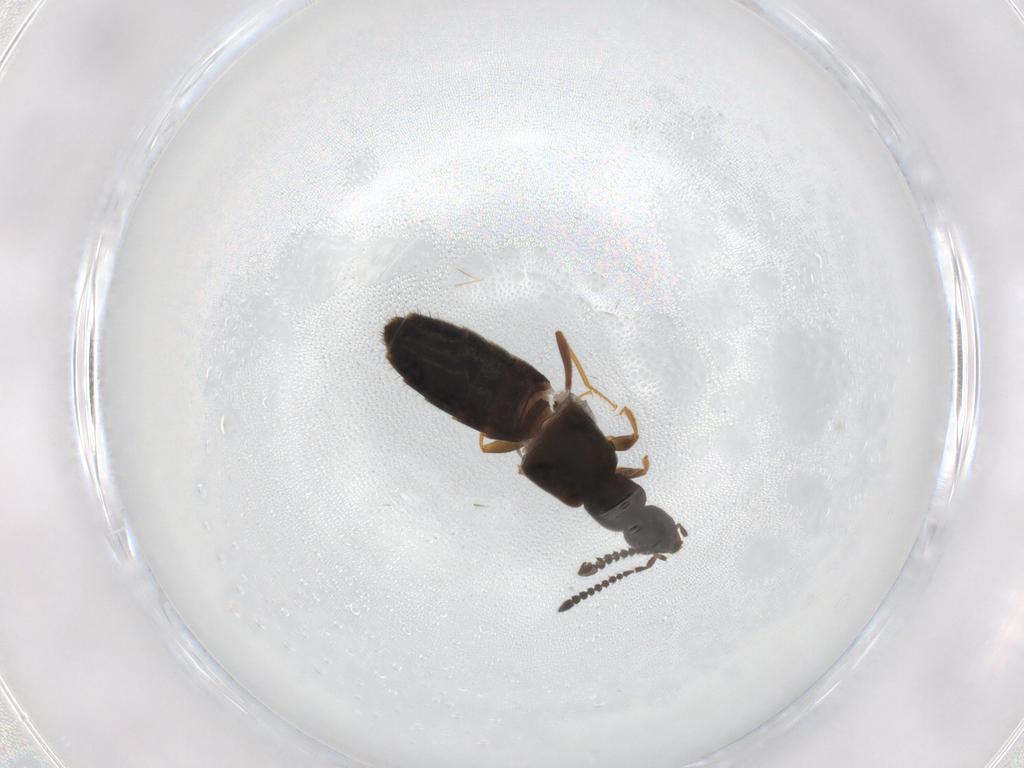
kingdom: Animalia
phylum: Arthropoda
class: Insecta
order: Coleoptera
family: Staphylinidae
